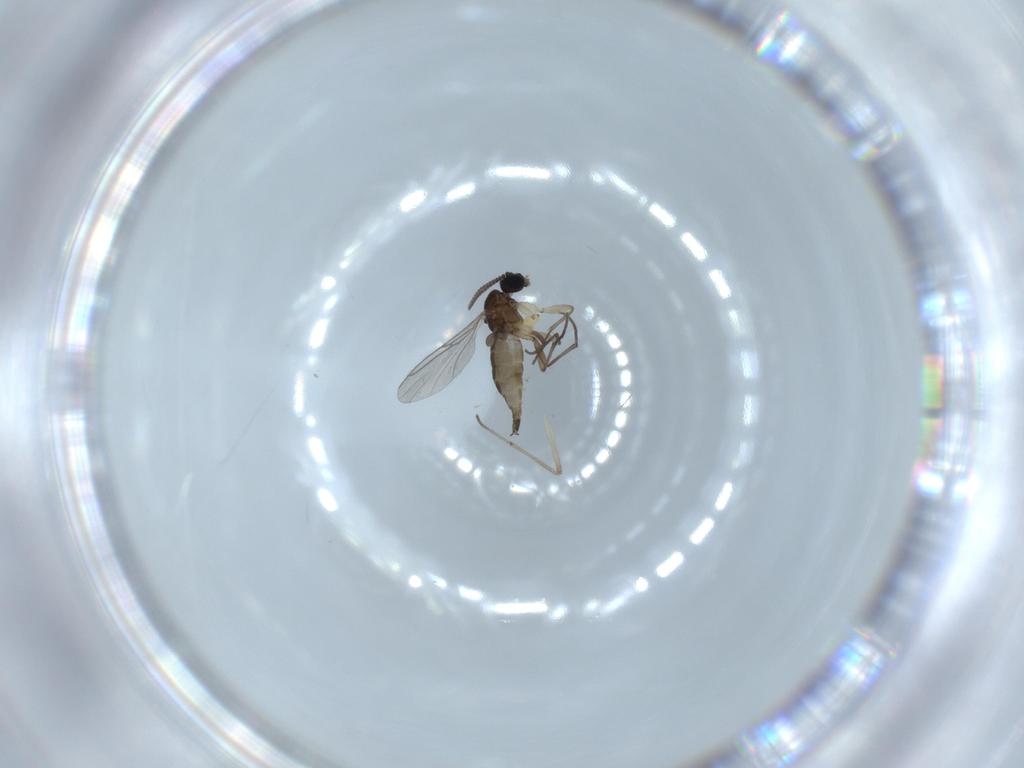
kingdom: Animalia
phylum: Arthropoda
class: Insecta
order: Diptera
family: Sciaridae
